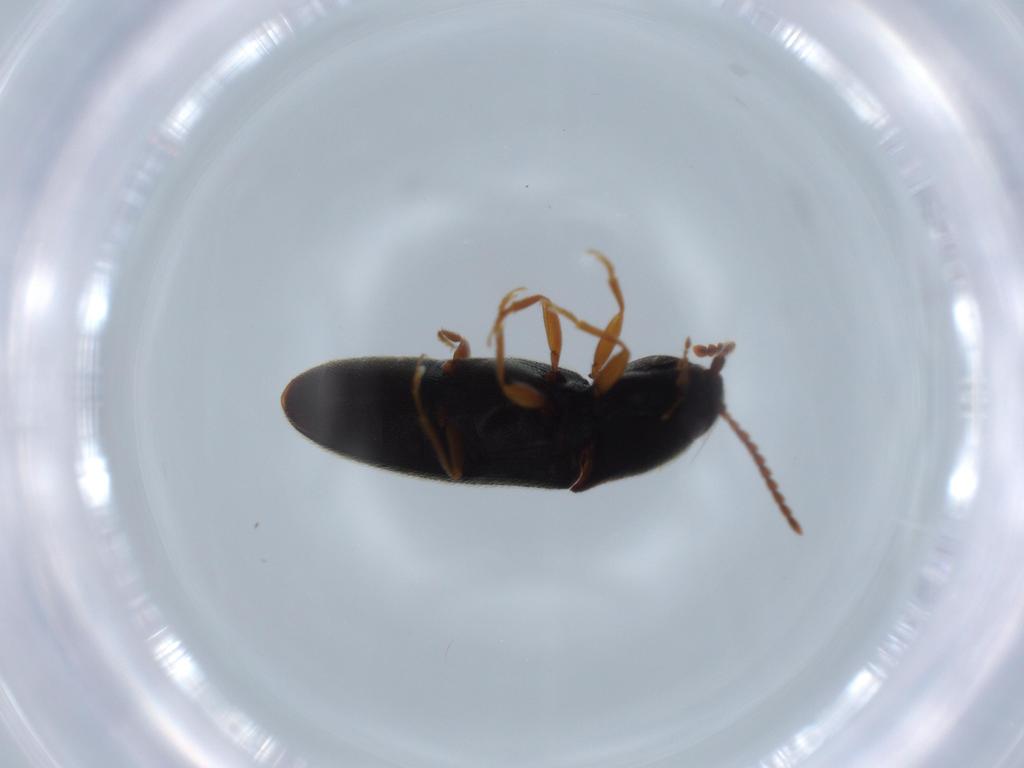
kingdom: Animalia
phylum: Arthropoda
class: Insecta
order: Coleoptera
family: Elateridae
